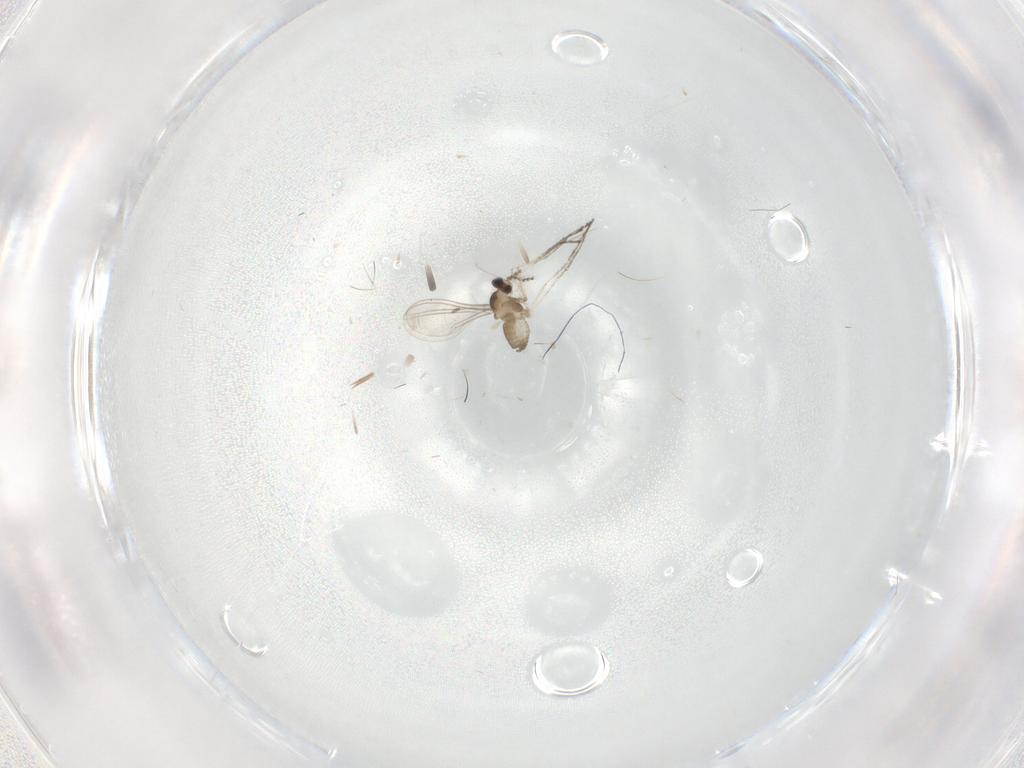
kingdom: Animalia
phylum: Arthropoda
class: Insecta
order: Diptera
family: Cecidomyiidae
